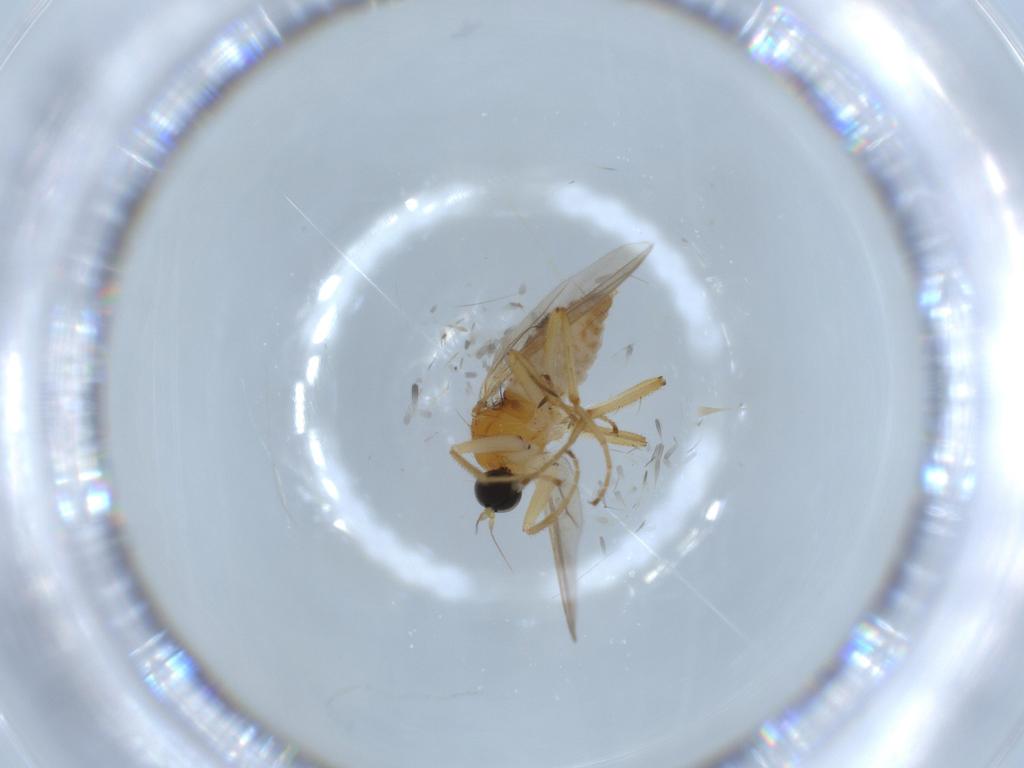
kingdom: Animalia
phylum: Arthropoda
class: Insecta
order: Diptera
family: Hybotidae
